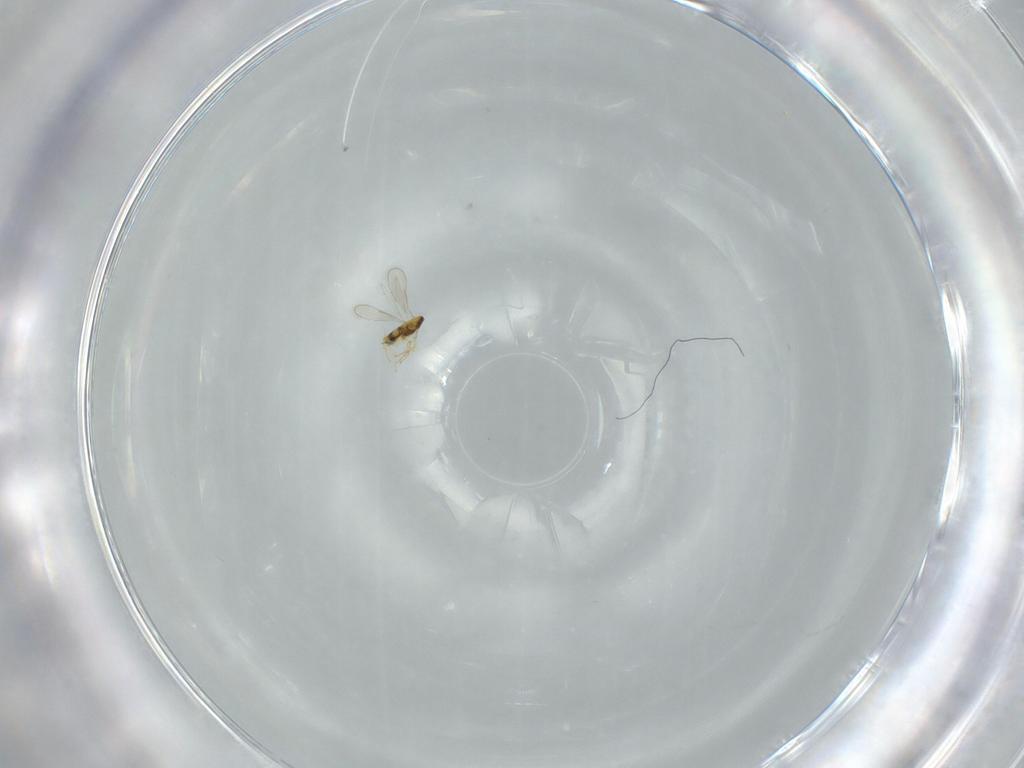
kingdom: Animalia
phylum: Arthropoda
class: Insecta
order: Hymenoptera
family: Aphelinidae
